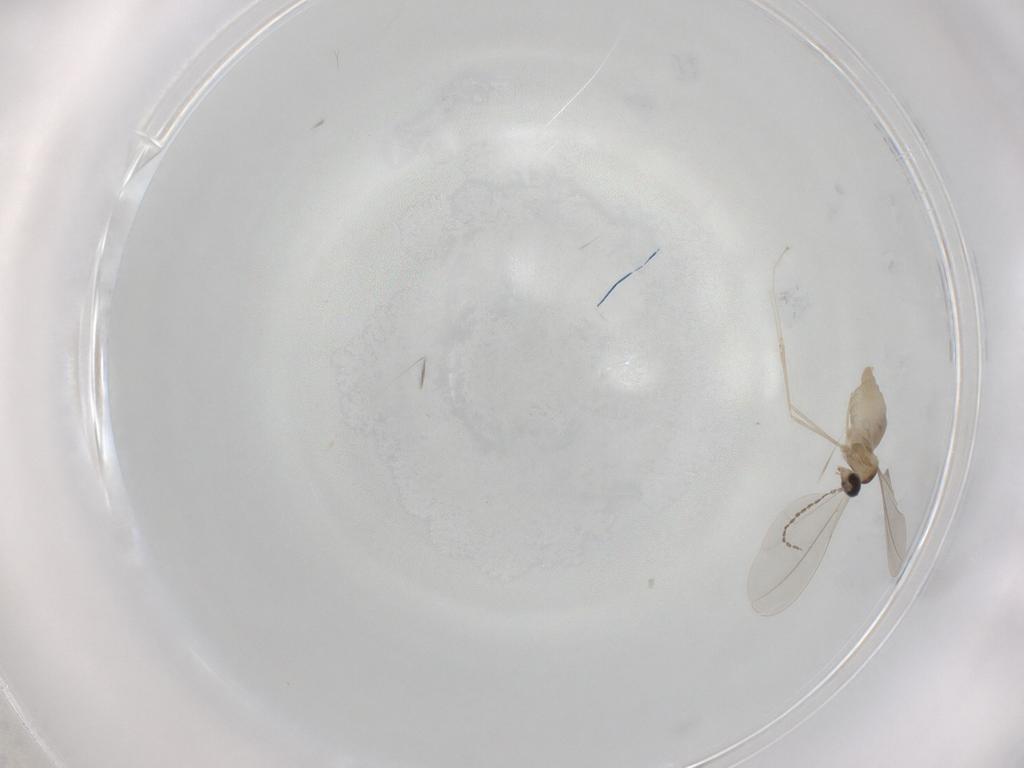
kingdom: Animalia
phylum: Arthropoda
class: Insecta
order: Diptera
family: Cecidomyiidae
